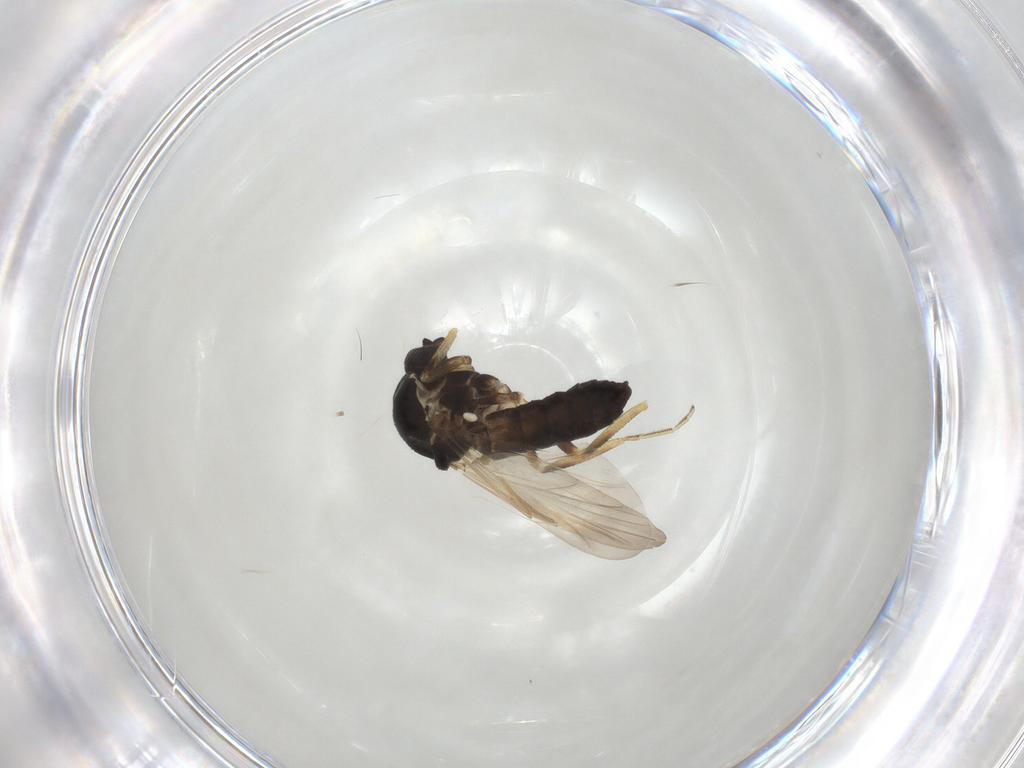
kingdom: Animalia
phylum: Arthropoda
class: Insecta
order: Diptera
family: Ceratopogonidae
